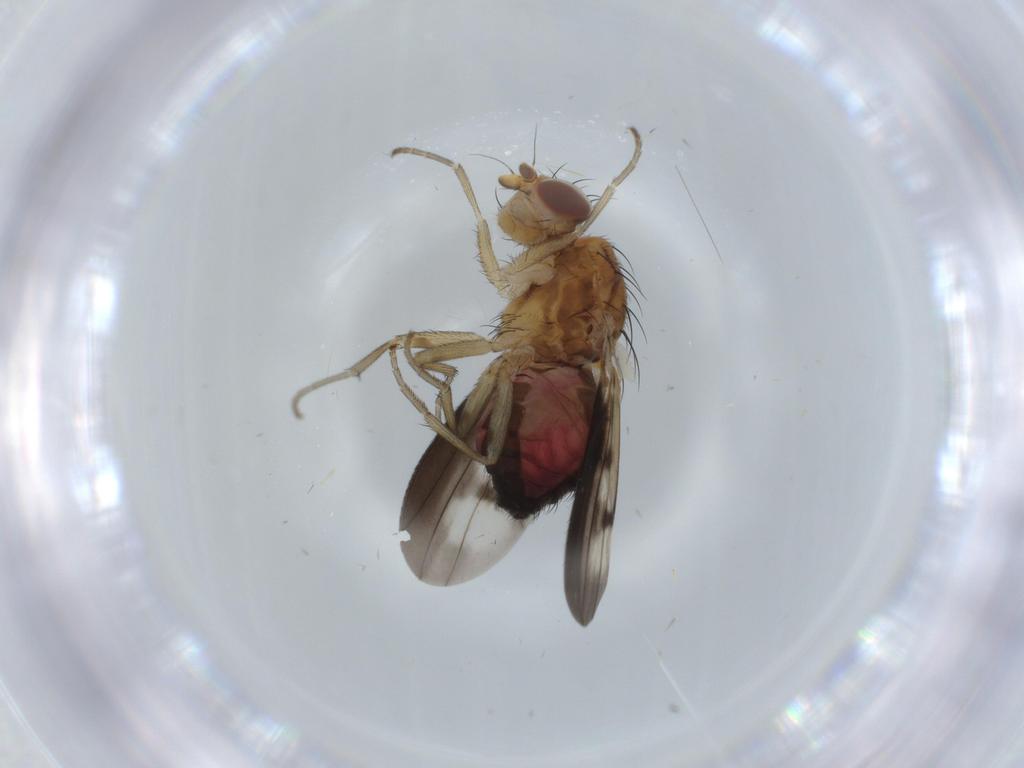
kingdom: Animalia
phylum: Arthropoda
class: Insecta
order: Diptera
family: Heleomyzidae
